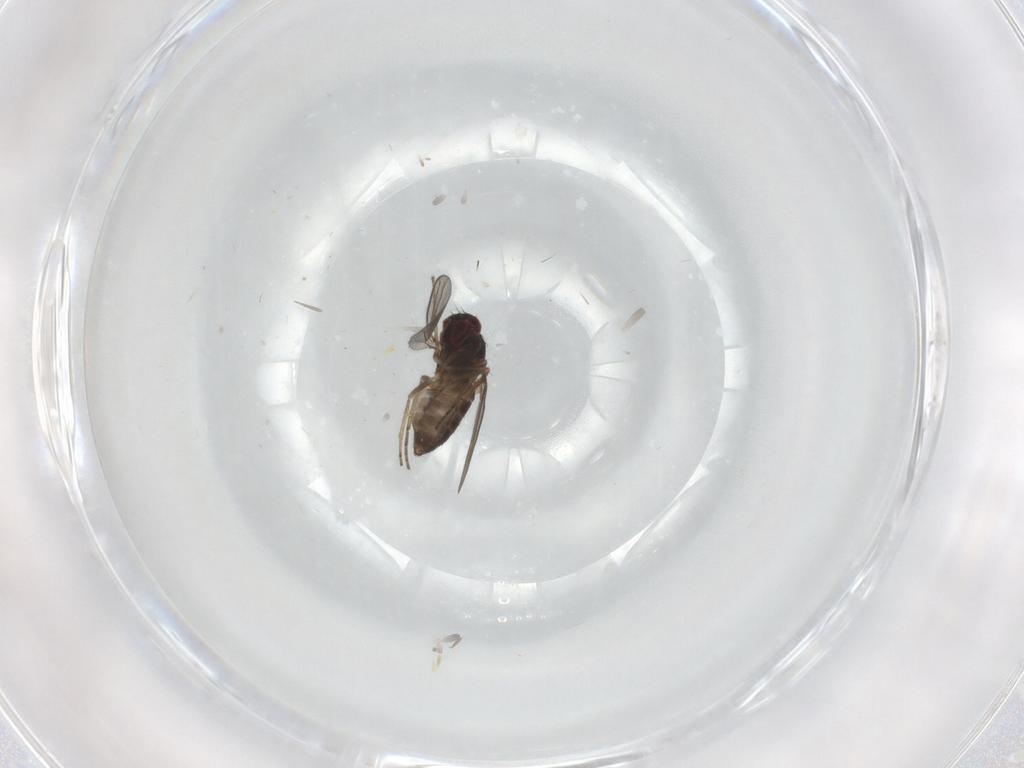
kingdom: Animalia
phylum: Arthropoda
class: Insecta
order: Diptera
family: Dolichopodidae
